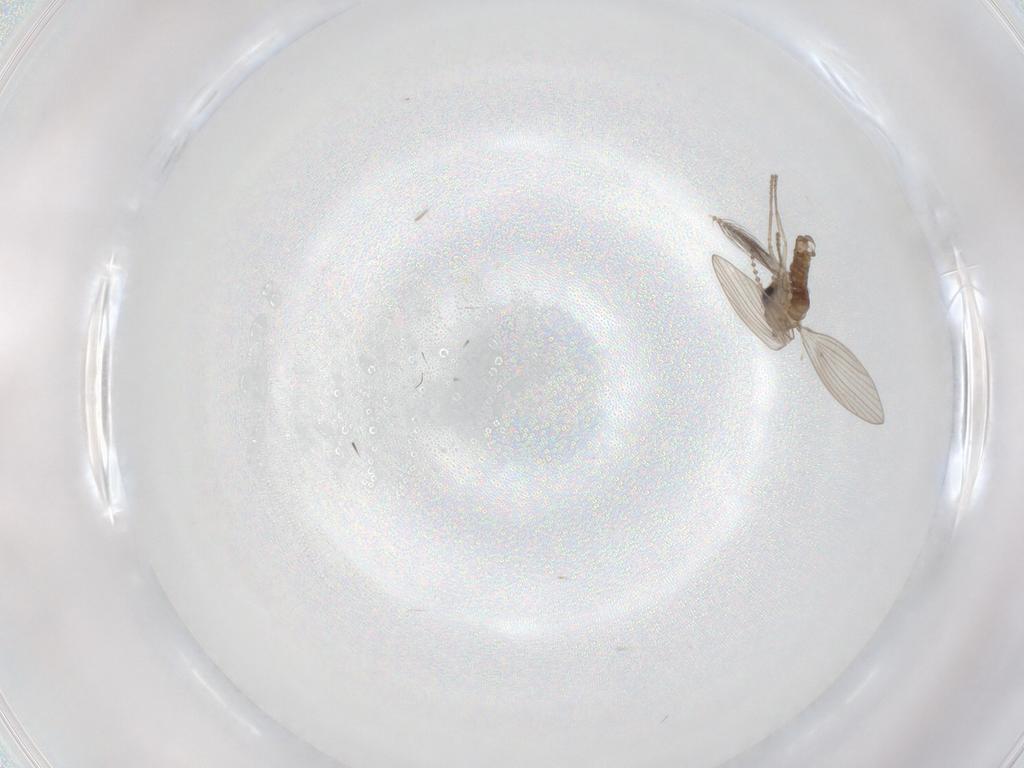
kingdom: Animalia
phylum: Arthropoda
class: Insecta
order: Diptera
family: Psychodidae
